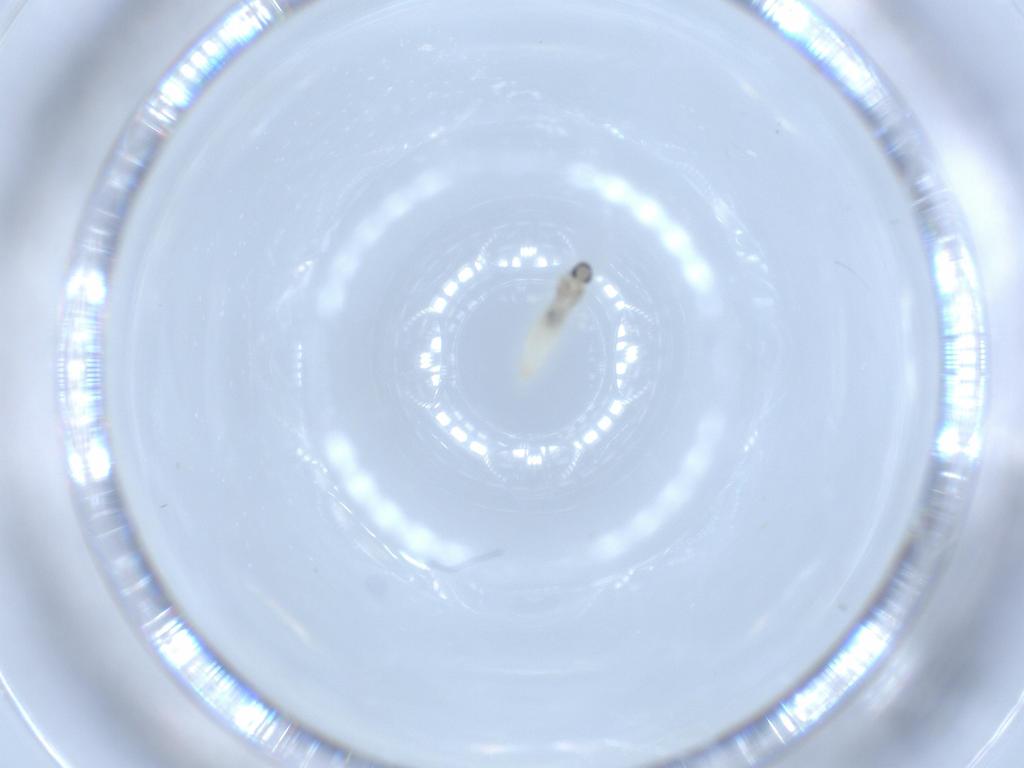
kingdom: Animalia
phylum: Arthropoda
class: Insecta
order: Diptera
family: Cecidomyiidae
